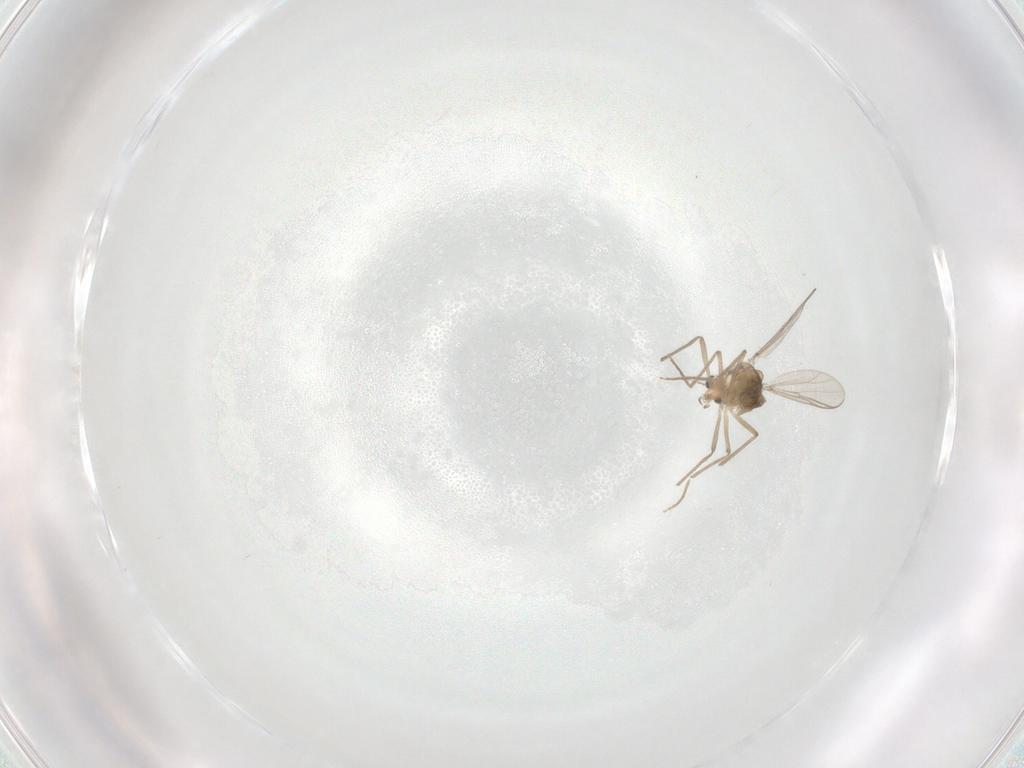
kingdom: Animalia
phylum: Arthropoda
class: Insecta
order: Diptera
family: Chironomidae
